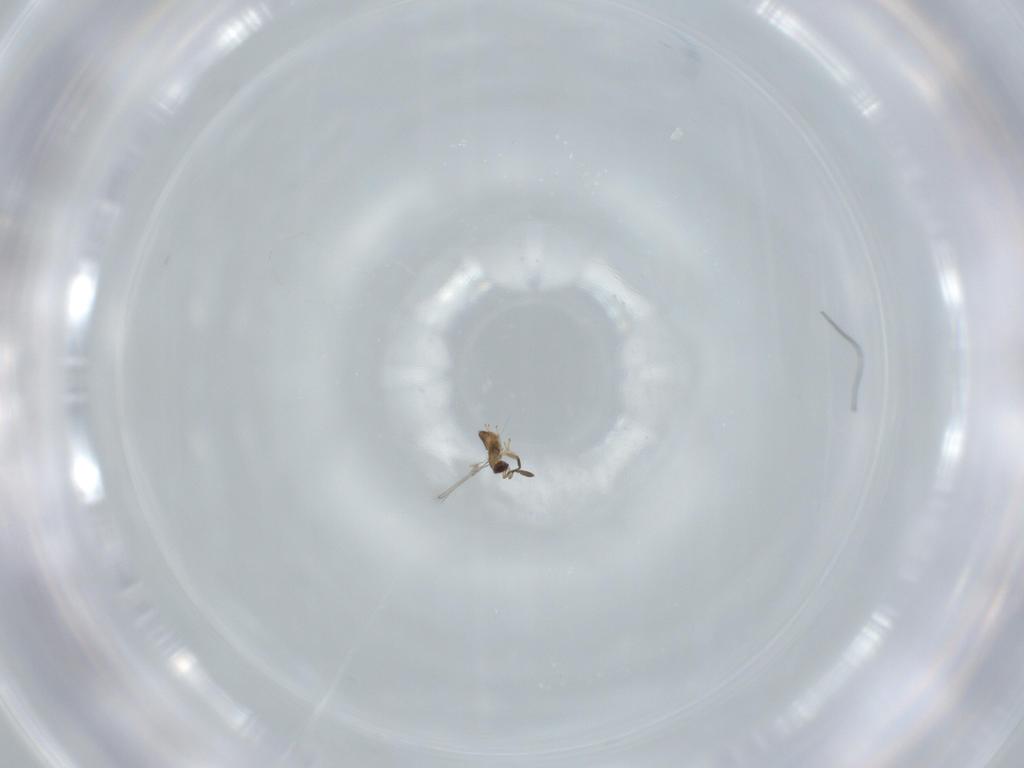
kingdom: Animalia
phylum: Arthropoda
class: Insecta
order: Hymenoptera
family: Mymaridae
